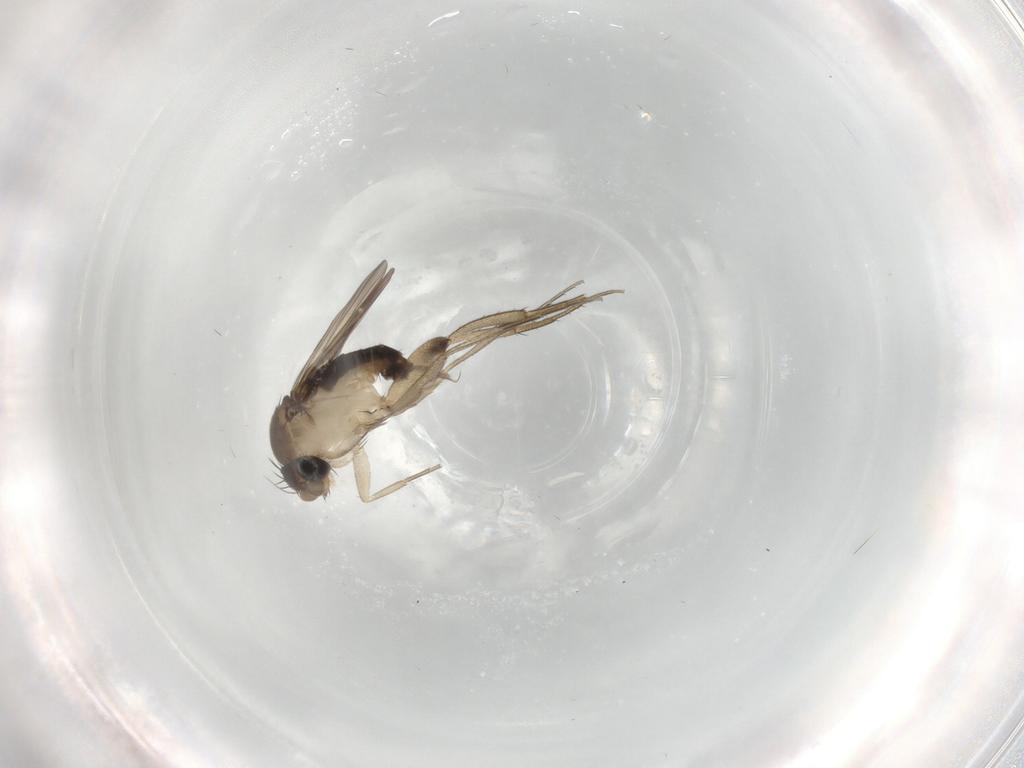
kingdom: Animalia
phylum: Arthropoda
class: Insecta
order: Diptera
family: Phoridae
